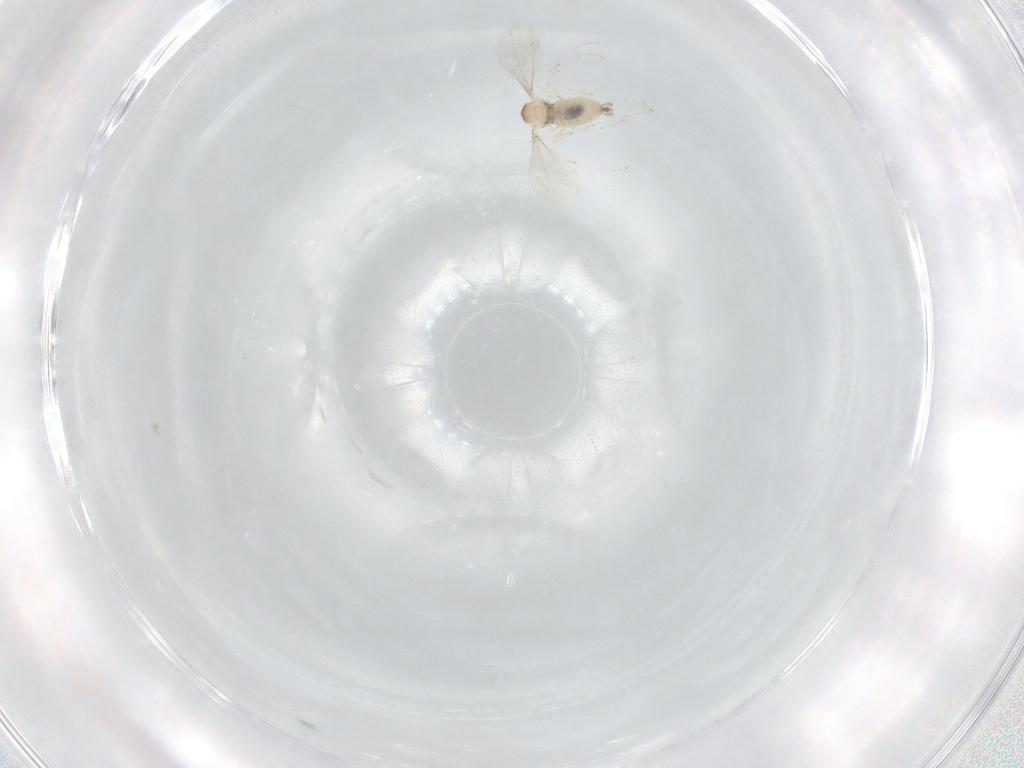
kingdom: Animalia
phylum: Arthropoda
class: Insecta
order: Diptera
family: Cecidomyiidae
